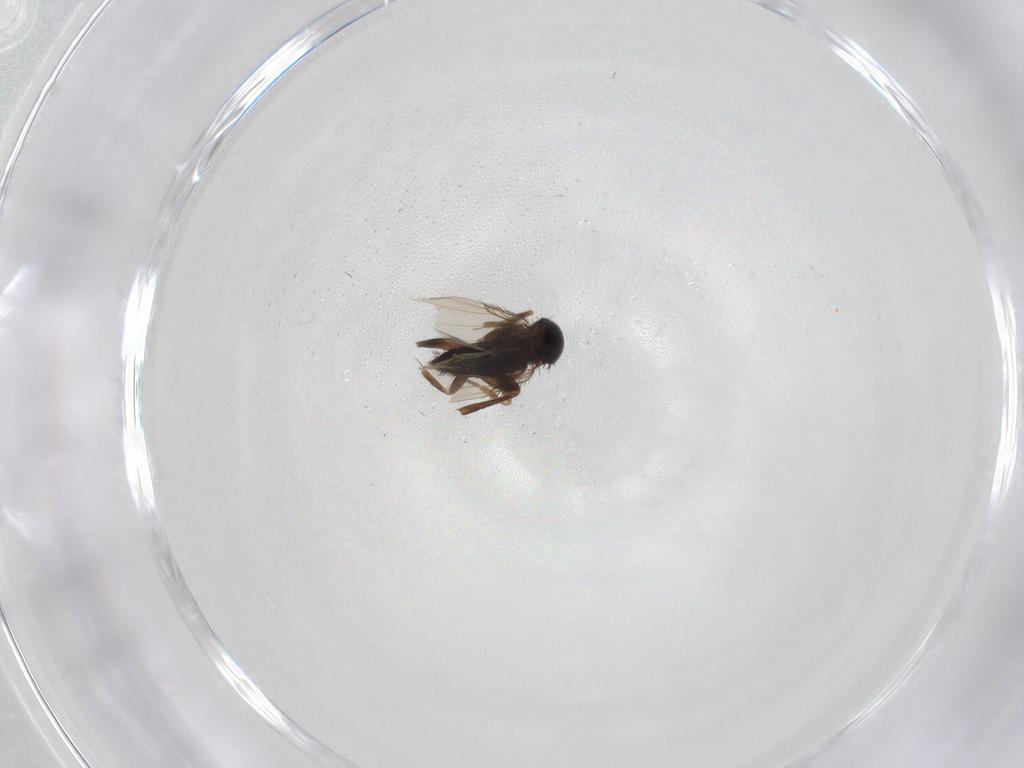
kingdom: Animalia
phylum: Arthropoda
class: Insecta
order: Diptera
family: Phoridae
